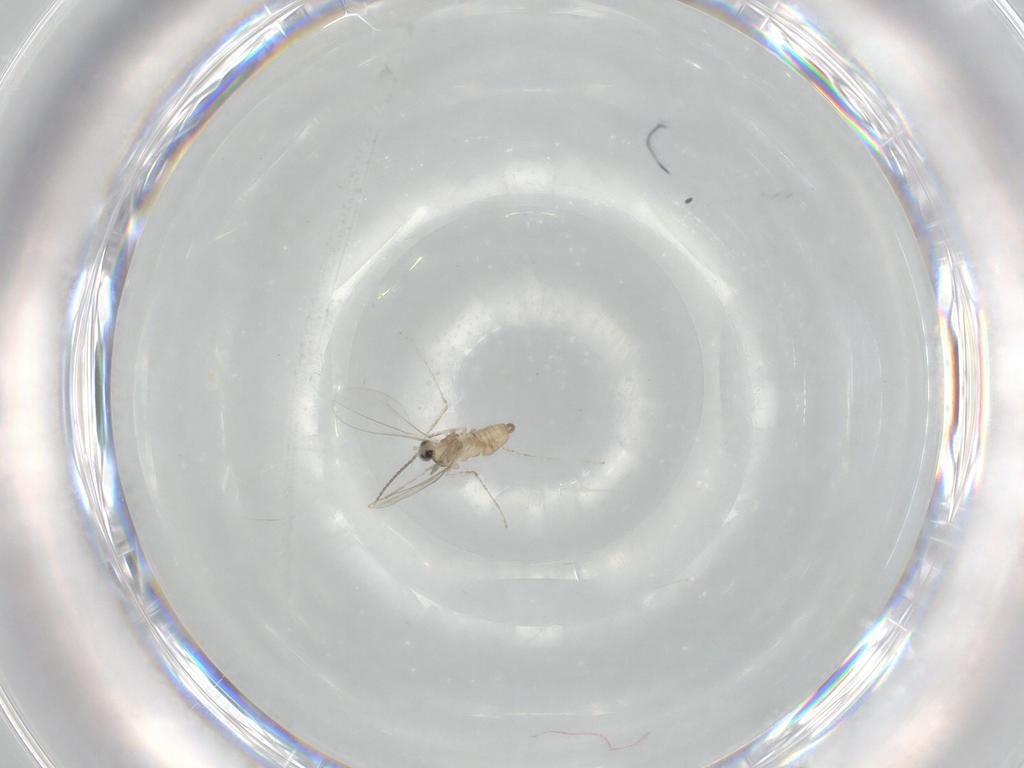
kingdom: Animalia
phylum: Arthropoda
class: Insecta
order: Diptera
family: Cecidomyiidae
